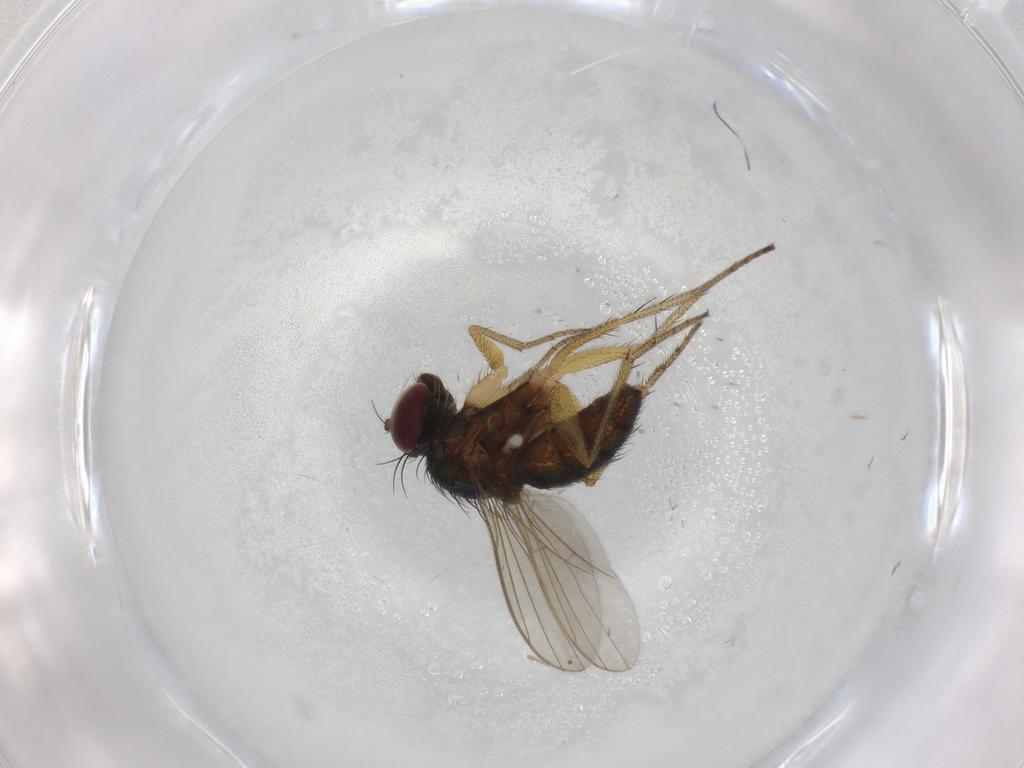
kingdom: Animalia
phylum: Arthropoda
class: Insecta
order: Diptera
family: Dolichopodidae
